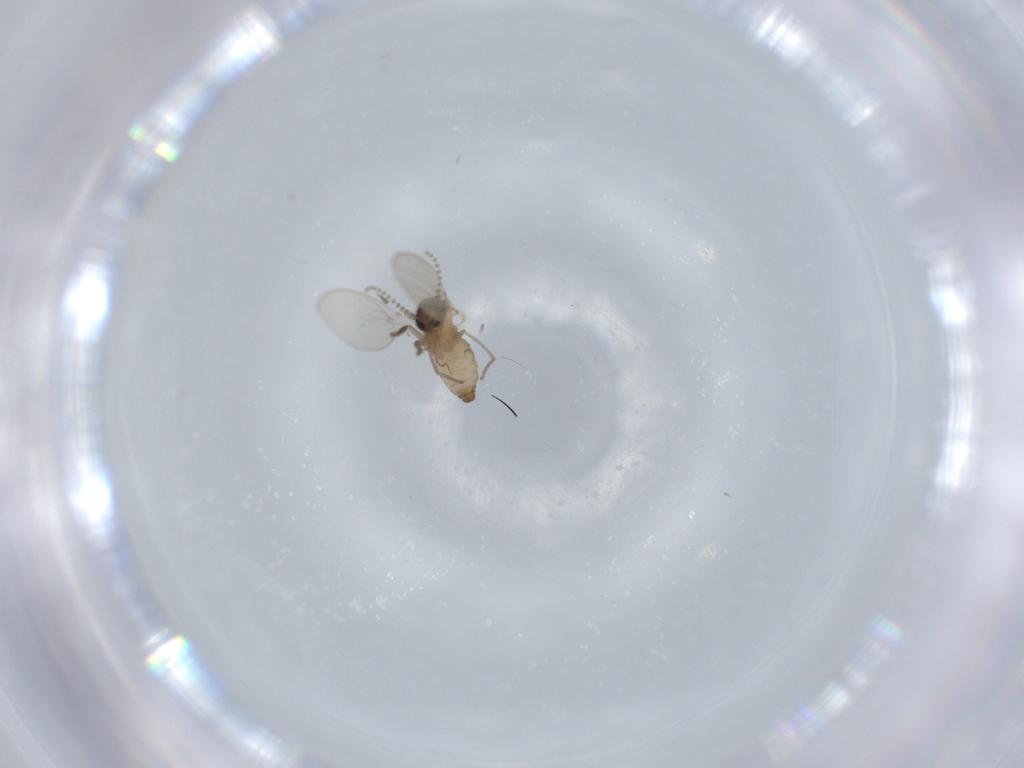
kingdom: Animalia
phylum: Arthropoda
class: Insecta
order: Diptera
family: Psychodidae
